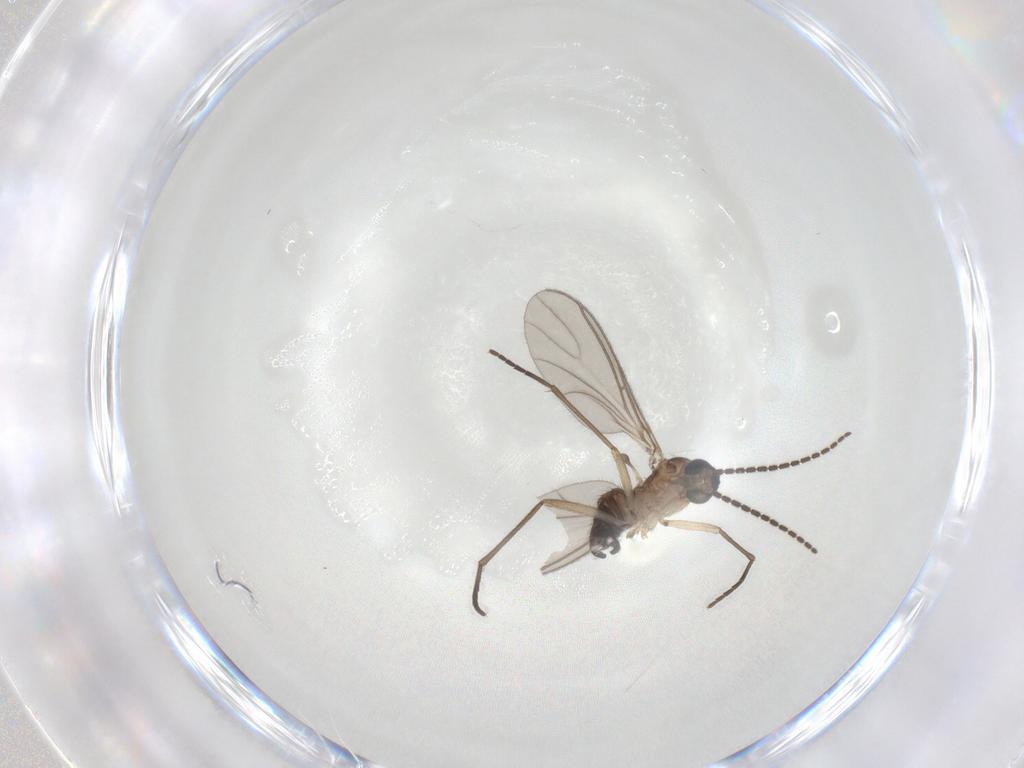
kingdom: Animalia
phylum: Arthropoda
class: Insecta
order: Diptera
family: Sciaridae
